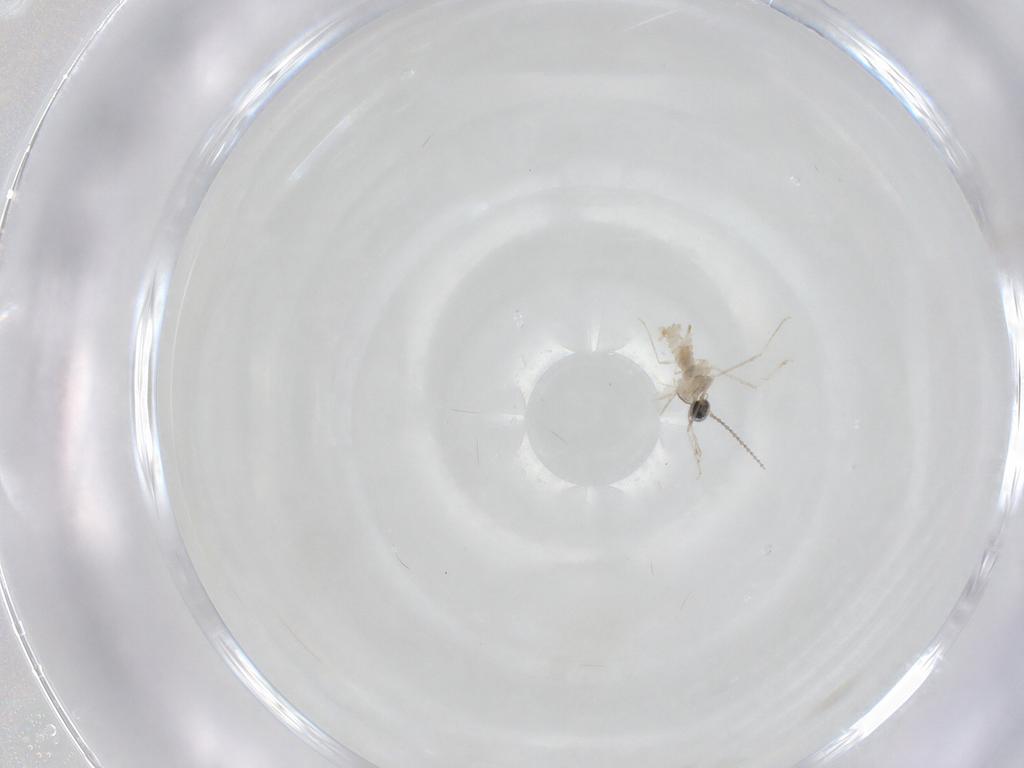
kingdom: Animalia
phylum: Arthropoda
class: Insecta
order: Diptera
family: Cecidomyiidae
